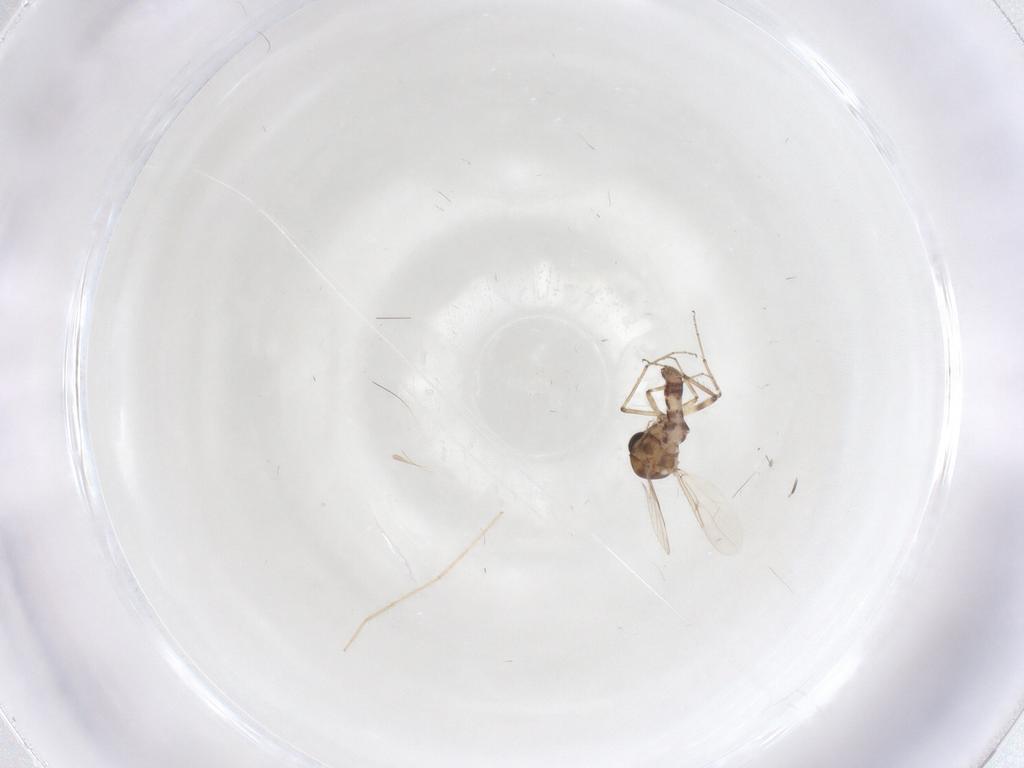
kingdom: Animalia
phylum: Arthropoda
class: Insecta
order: Diptera
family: Ceratopogonidae
